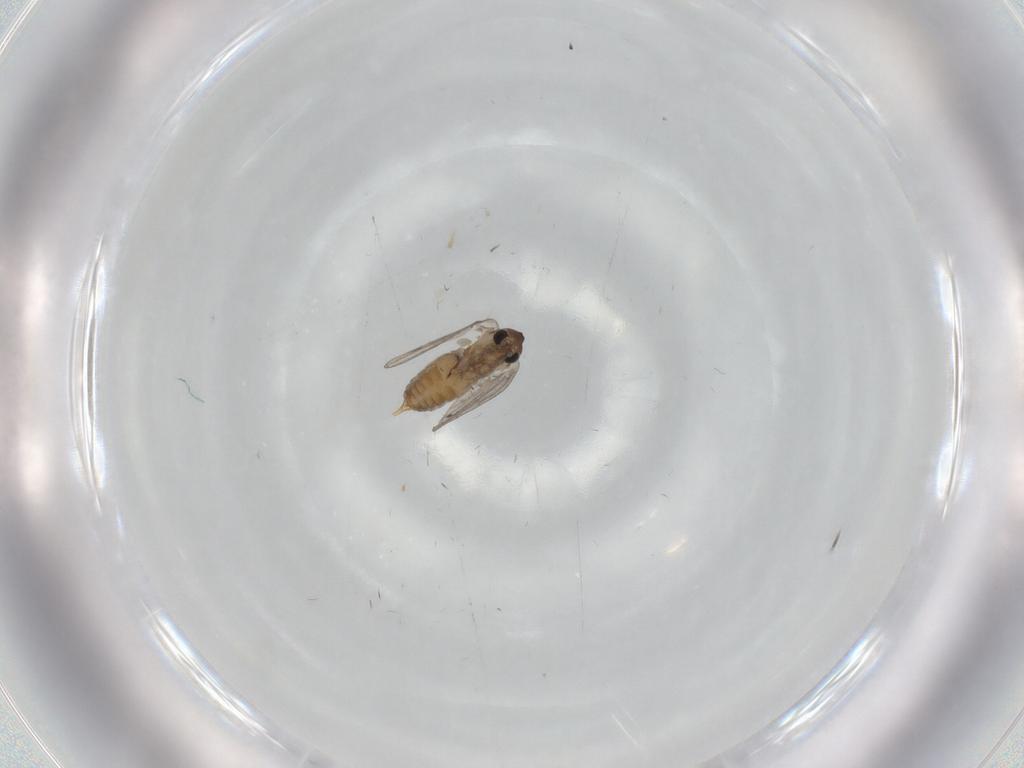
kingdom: Animalia
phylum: Arthropoda
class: Insecta
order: Diptera
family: Psychodidae
